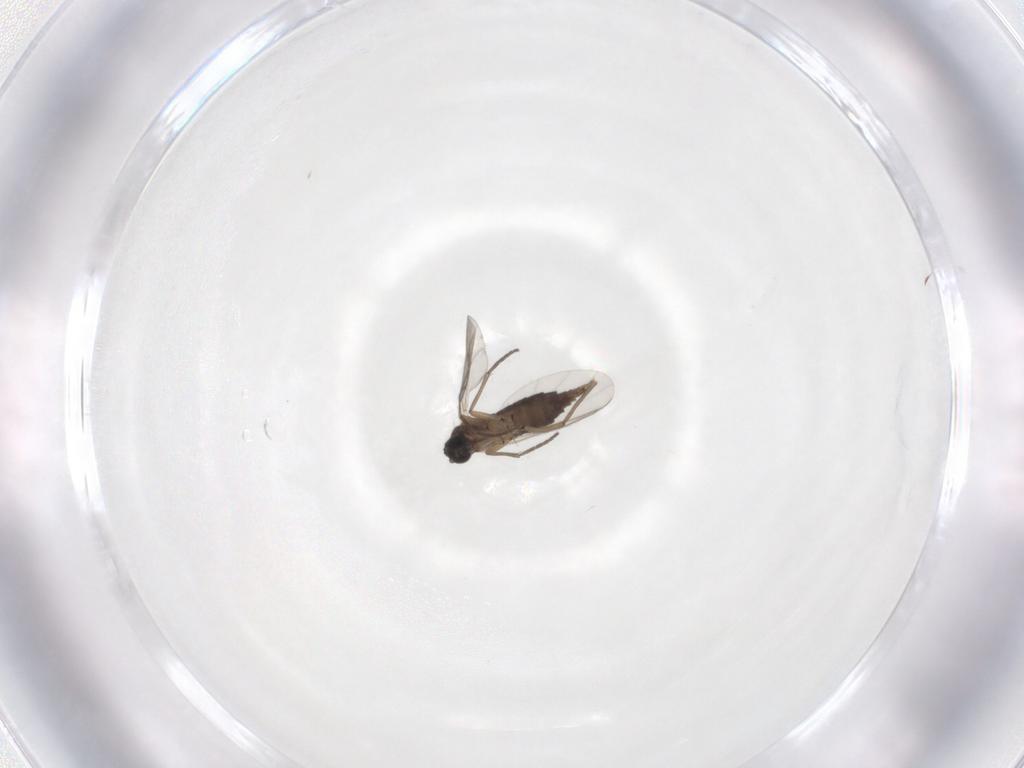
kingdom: Animalia
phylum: Arthropoda
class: Insecta
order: Diptera
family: Sciaridae
